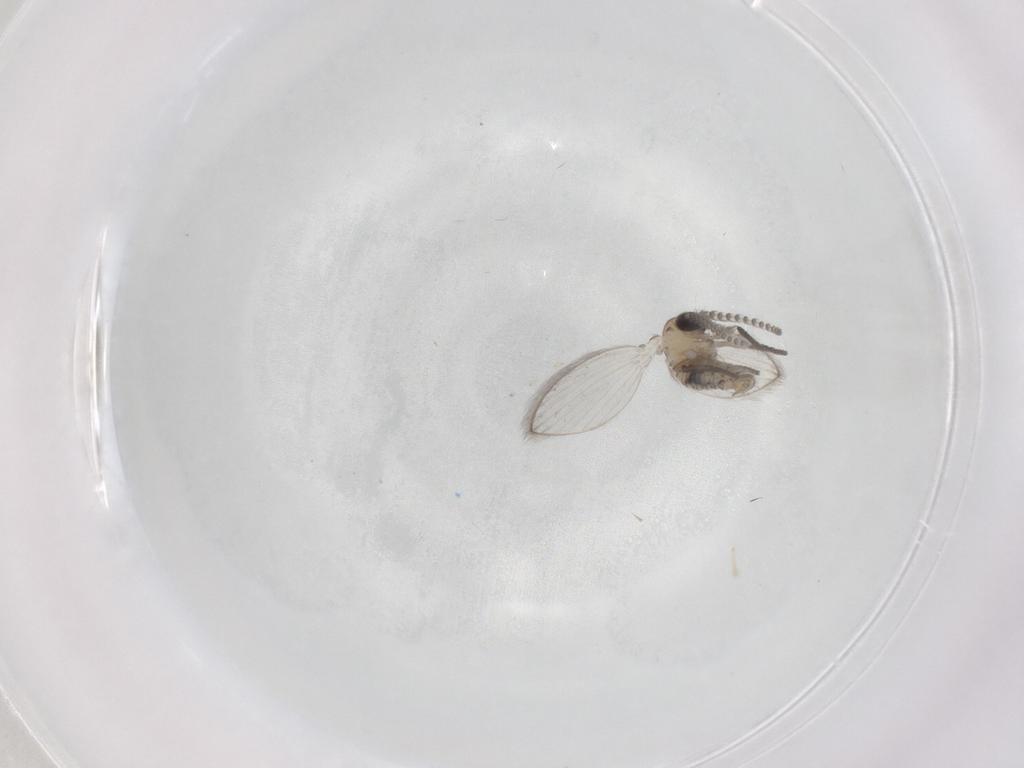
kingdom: Animalia
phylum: Arthropoda
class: Insecta
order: Diptera
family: Psychodidae
